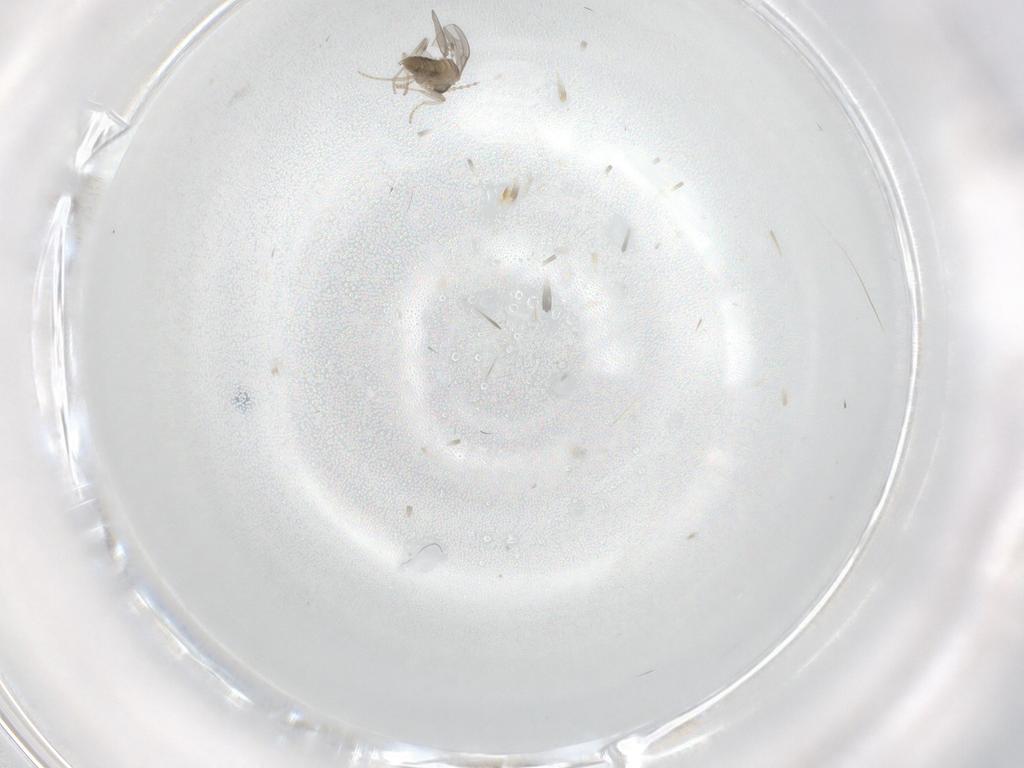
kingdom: Animalia
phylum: Arthropoda
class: Insecta
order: Diptera
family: Cecidomyiidae
